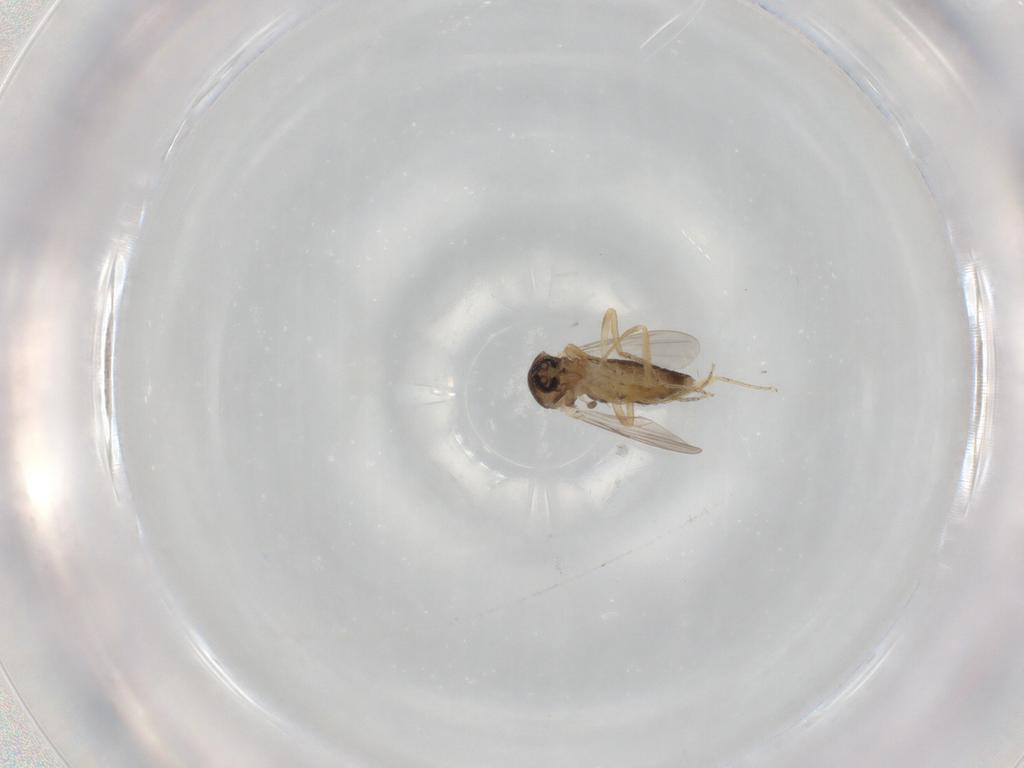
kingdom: Animalia
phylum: Arthropoda
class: Insecta
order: Diptera
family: Ceratopogonidae
